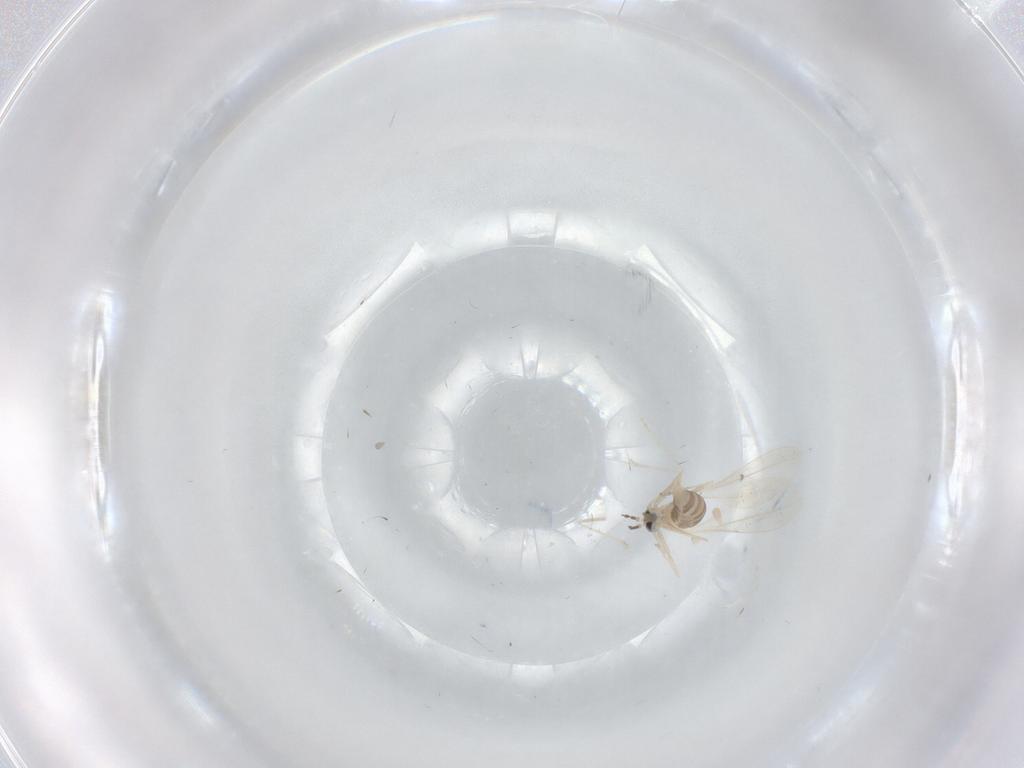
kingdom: Animalia
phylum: Arthropoda
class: Insecta
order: Diptera
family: Cecidomyiidae
